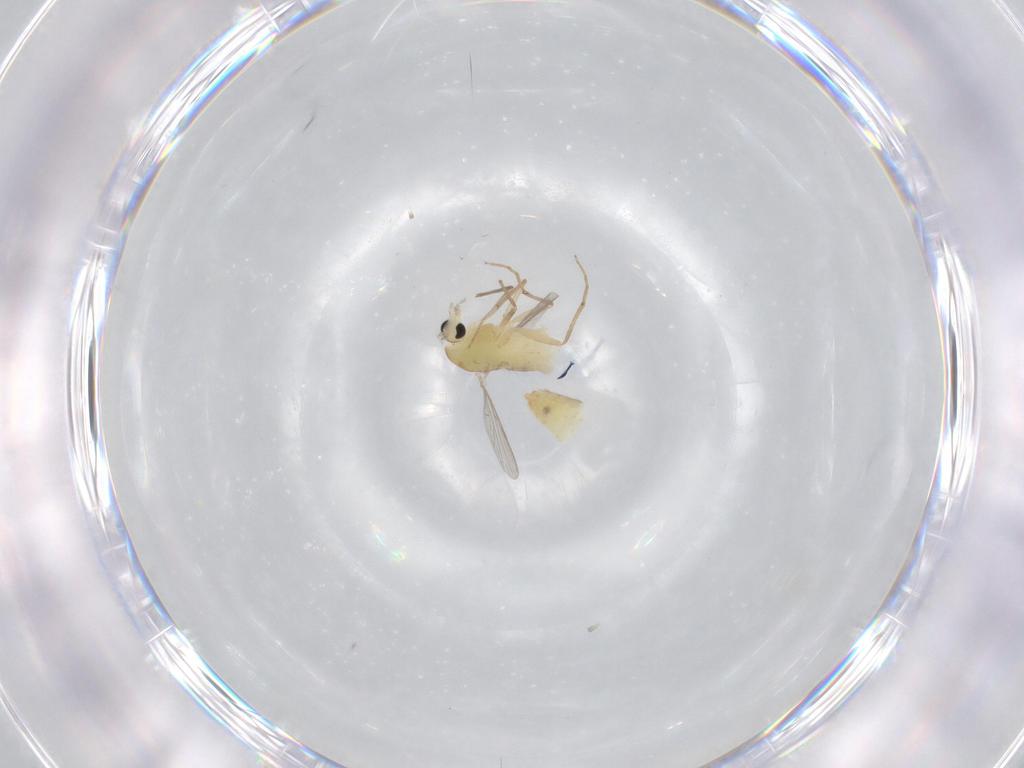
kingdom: Animalia
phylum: Arthropoda
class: Insecta
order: Diptera
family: Chironomidae
